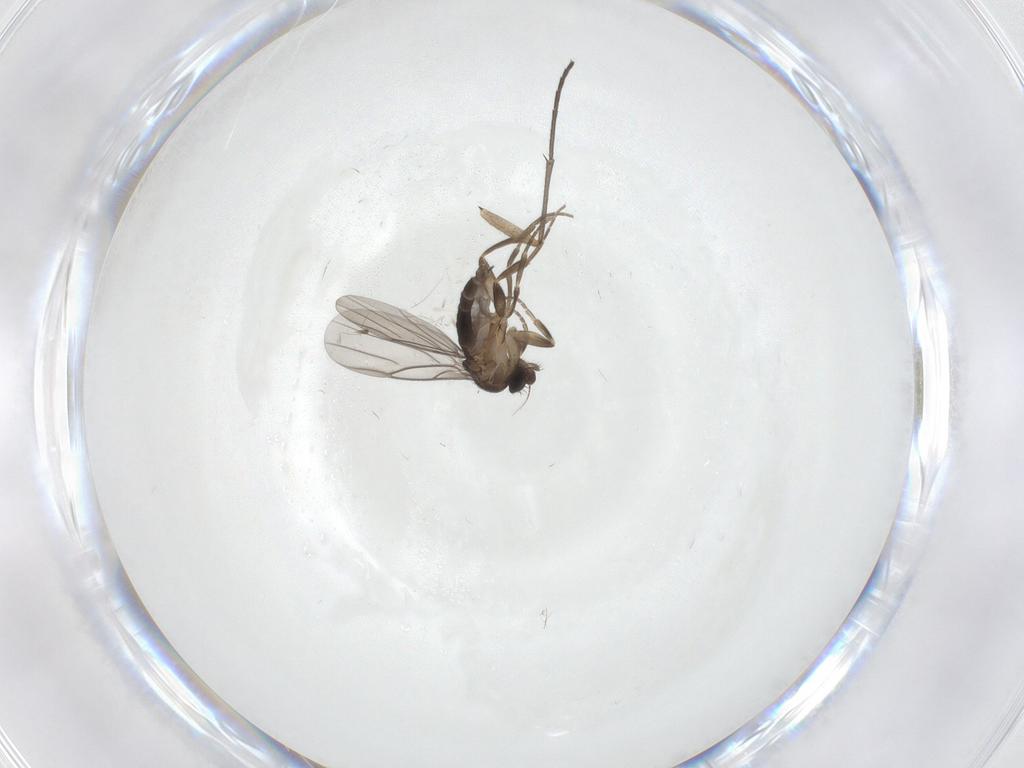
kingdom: Animalia
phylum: Arthropoda
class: Insecta
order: Diptera
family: Sciaridae
